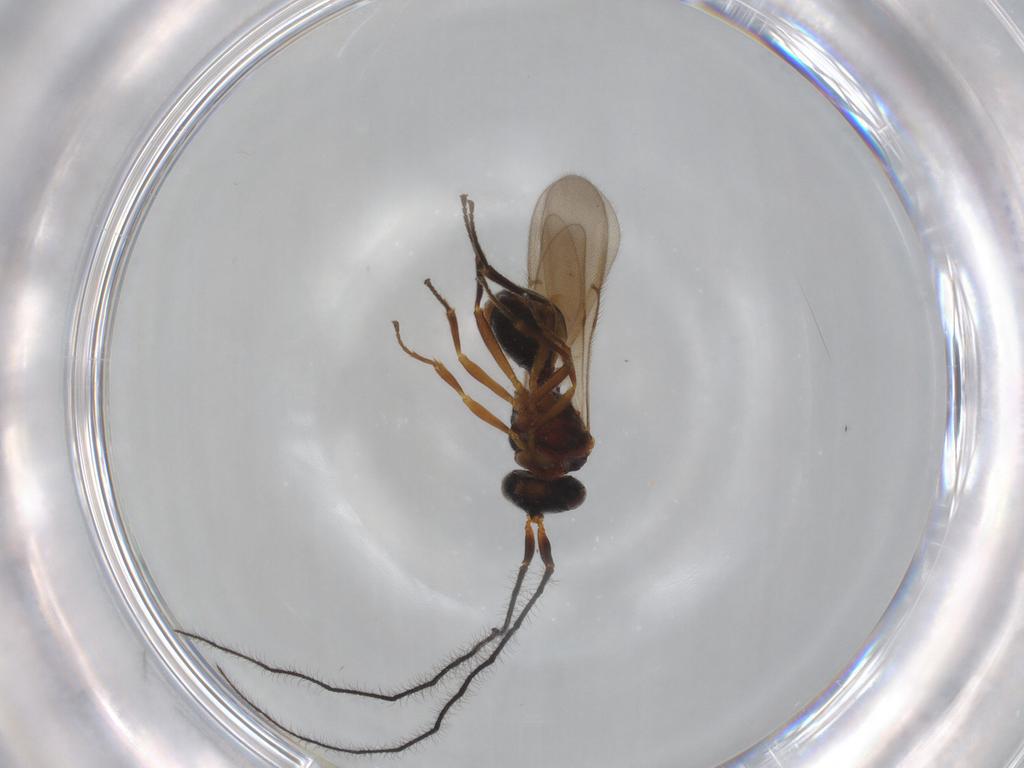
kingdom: Animalia
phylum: Arthropoda
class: Insecta
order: Hymenoptera
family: Scelionidae
